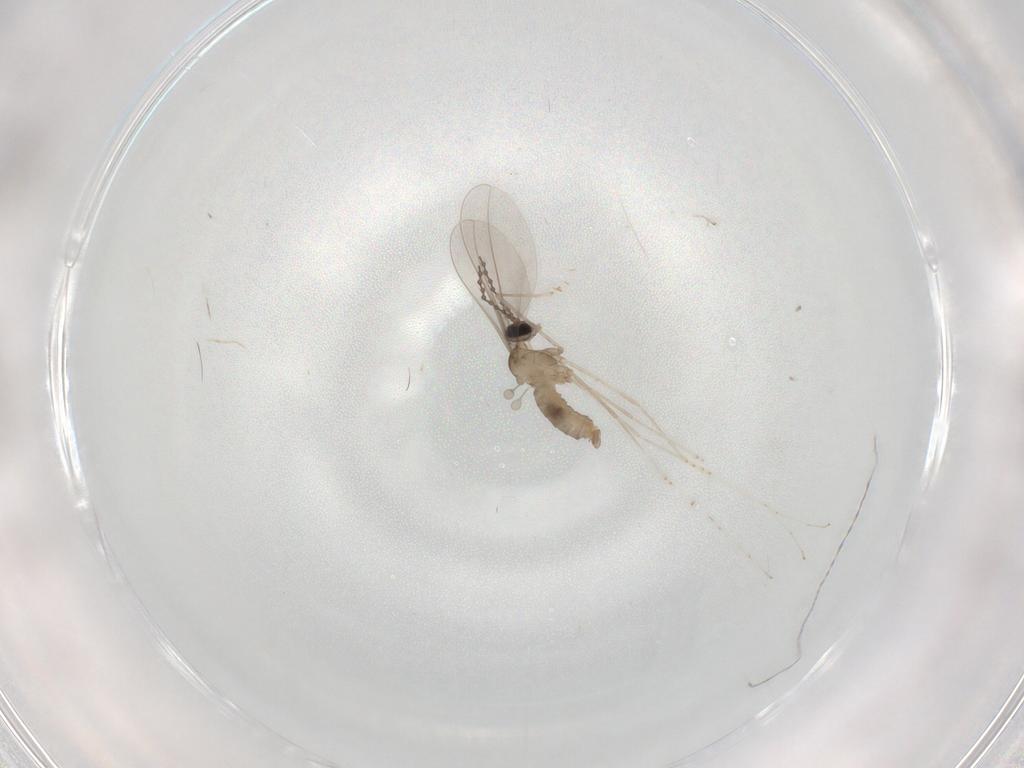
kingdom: Animalia
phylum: Arthropoda
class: Insecta
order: Diptera
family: Cecidomyiidae
